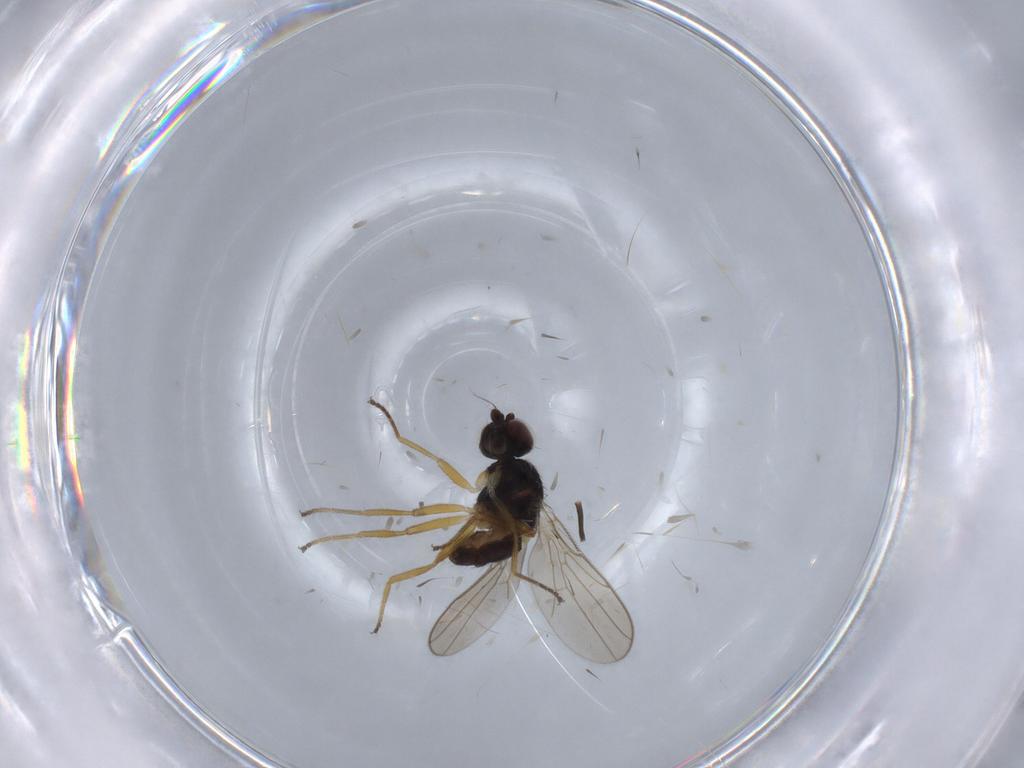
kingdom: Animalia
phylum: Arthropoda
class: Insecta
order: Diptera
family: Chloropidae
